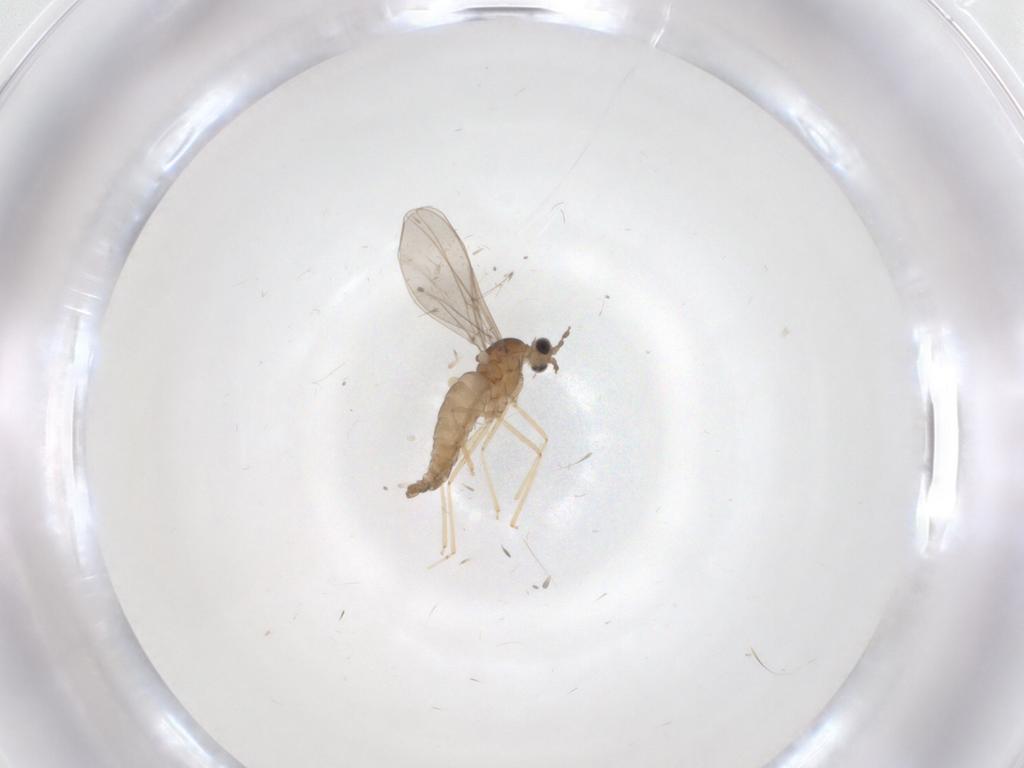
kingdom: Animalia
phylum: Arthropoda
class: Insecta
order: Diptera
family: Cecidomyiidae
